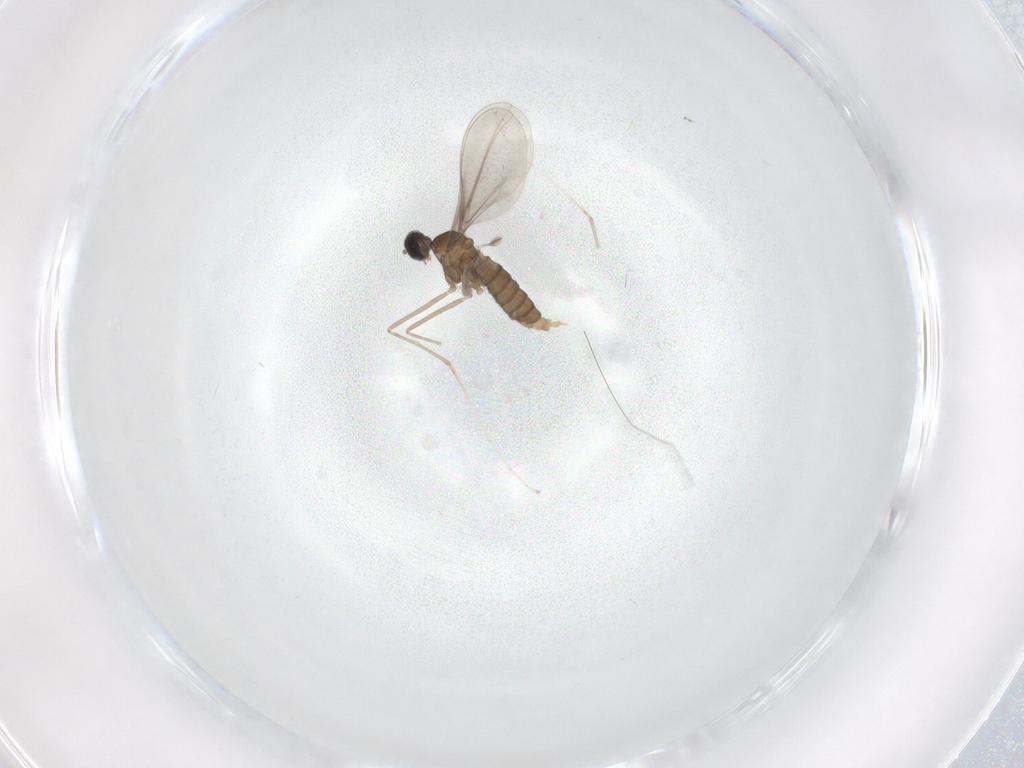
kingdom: Animalia
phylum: Arthropoda
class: Insecta
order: Diptera
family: Cecidomyiidae
